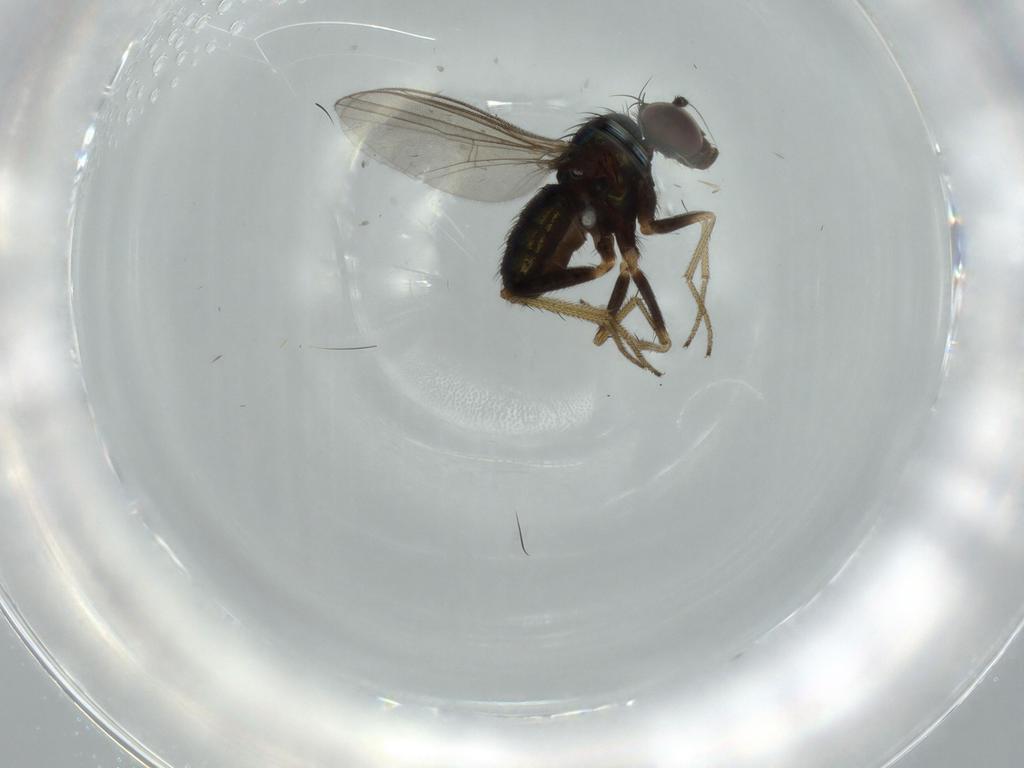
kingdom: Animalia
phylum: Arthropoda
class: Insecta
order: Diptera
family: Dolichopodidae
